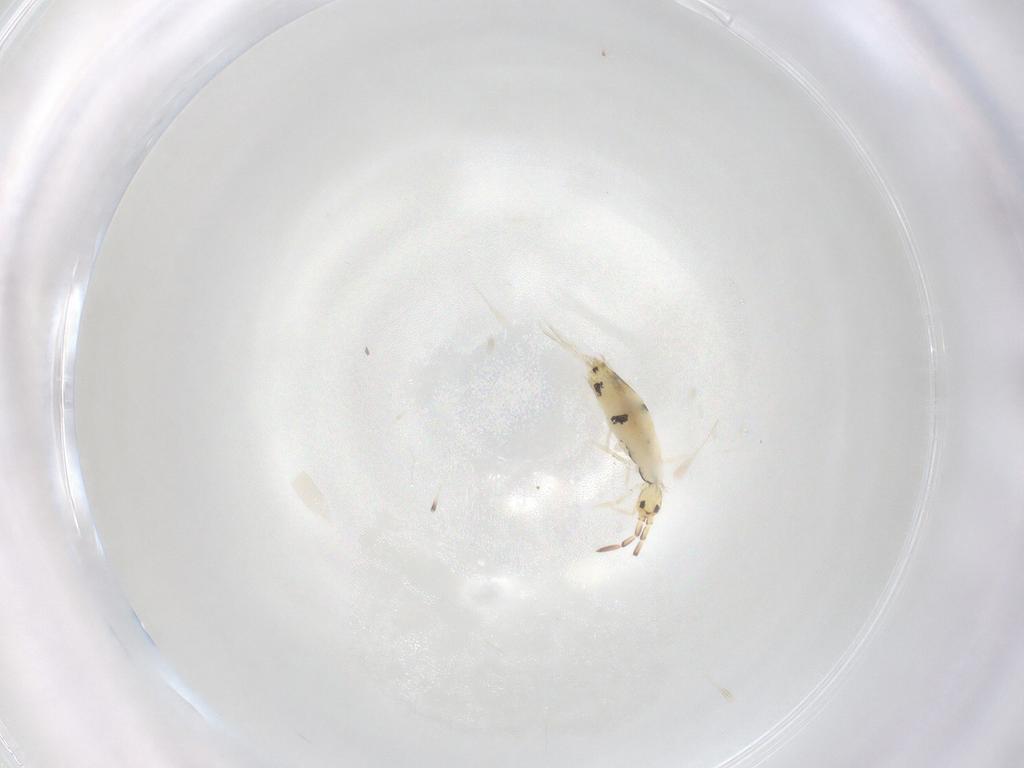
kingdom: Animalia
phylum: Arthropoda
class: Collembola
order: Entomobryomorpha
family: Entomobryidae
